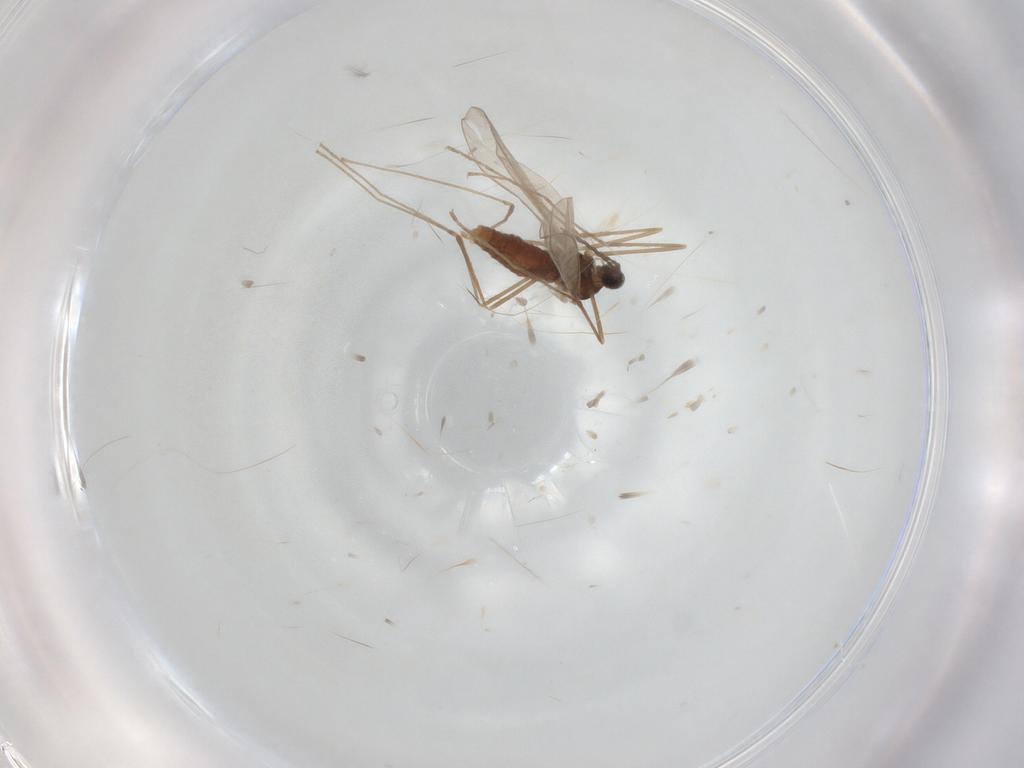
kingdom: Animalia
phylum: Arthropoda
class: Insecta
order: Diptera
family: Cecidomyiidae
